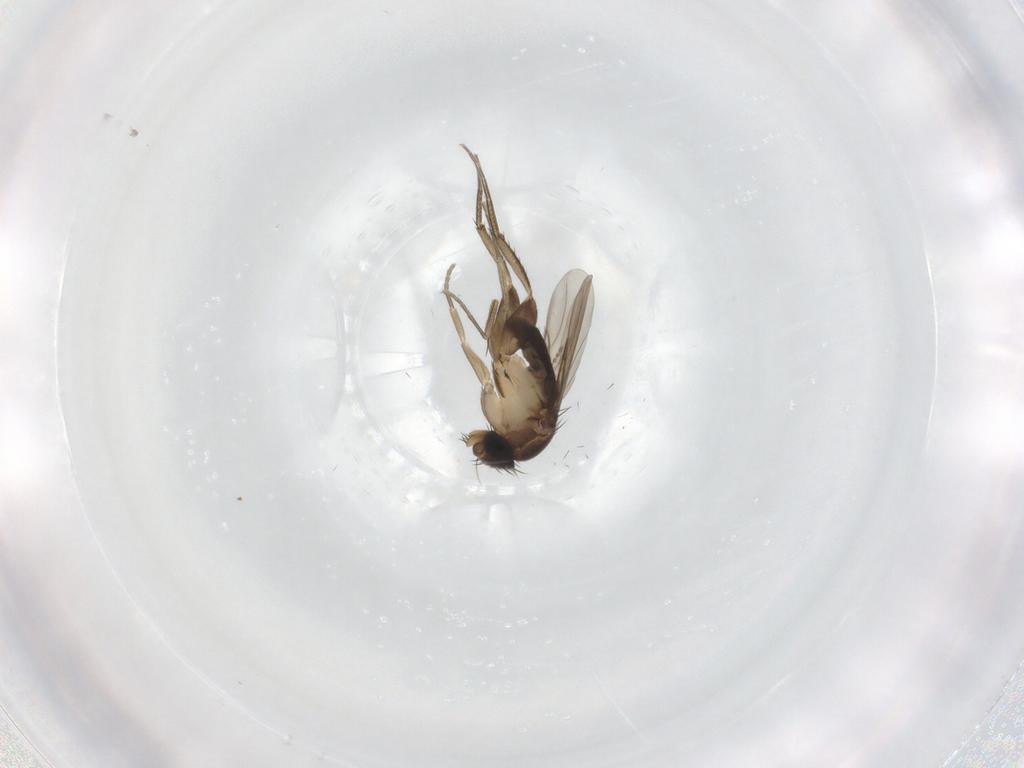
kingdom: Animalia
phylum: Arthropoda
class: Insecta
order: Diptera
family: Phoridae
